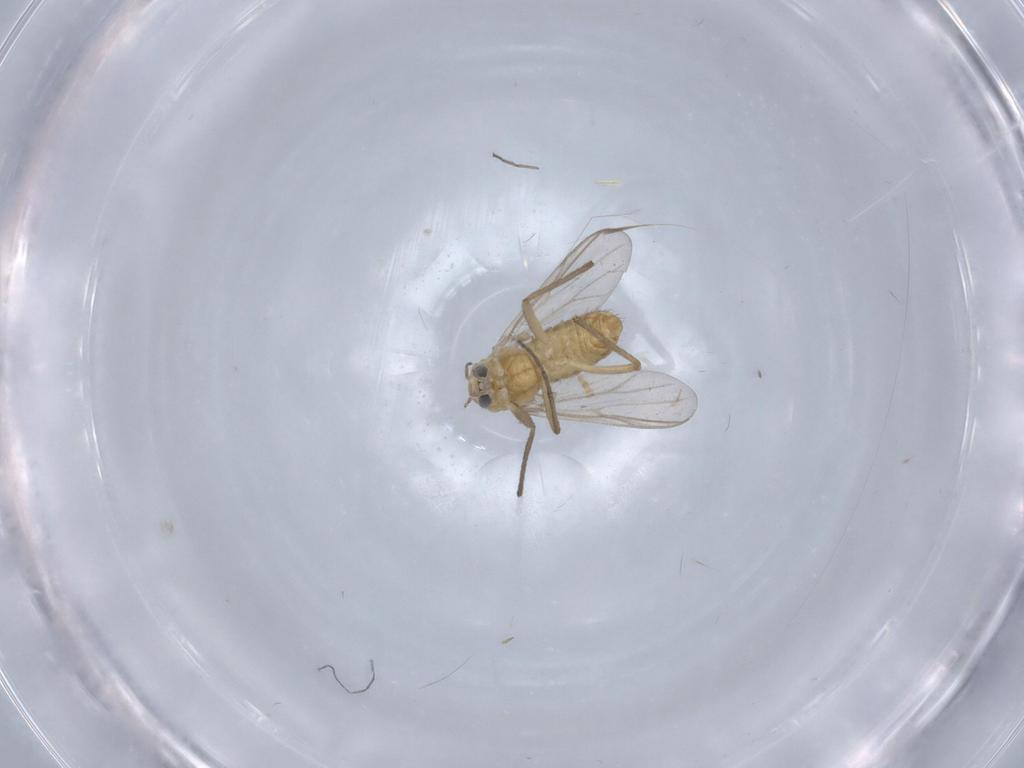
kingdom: Animalia
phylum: Arthropoda
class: Insecta
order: Diptera
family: Chironomidae
